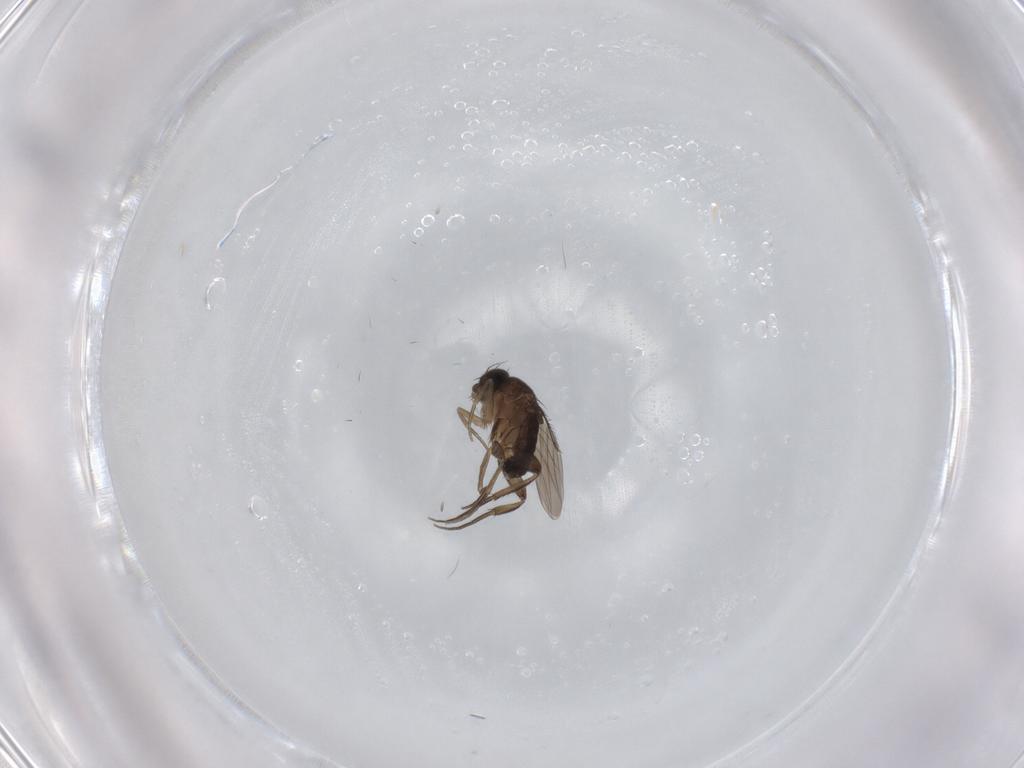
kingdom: Animalia
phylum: Arthropoda
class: Insecta
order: Diptera
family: Phoridae
